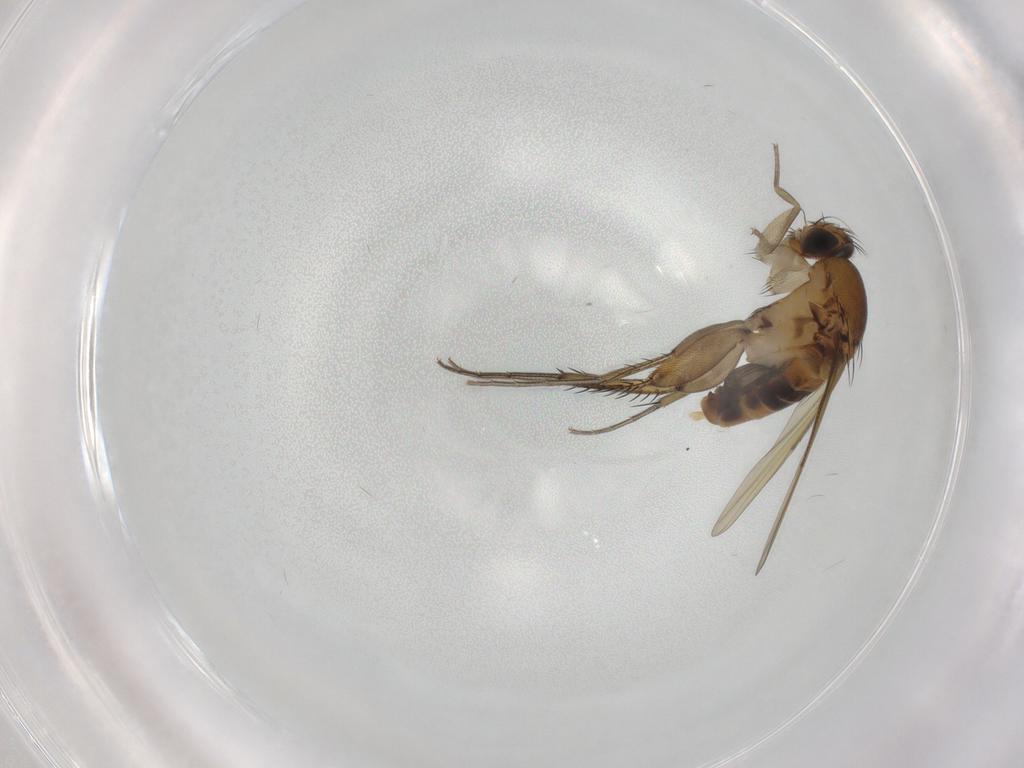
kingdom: Animalia
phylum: Arthropoda
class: Insecta
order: Diptera
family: Phoridae
